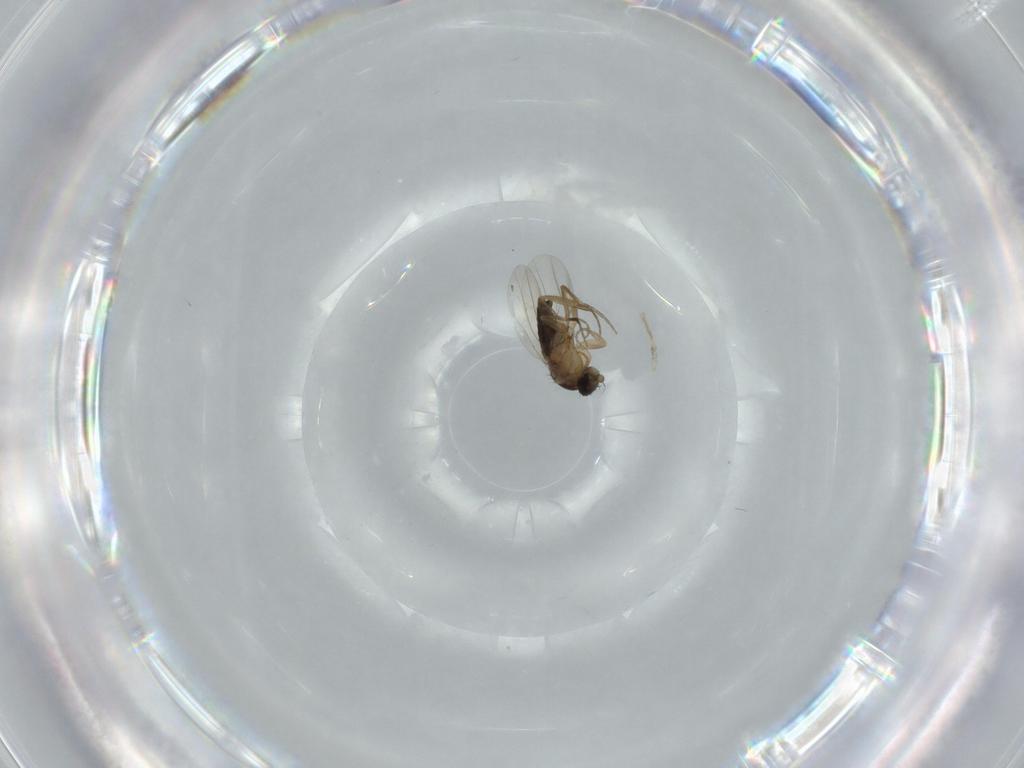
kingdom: Animalia
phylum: Arthropoda
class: Insecta
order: Diptera
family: Phoridae
